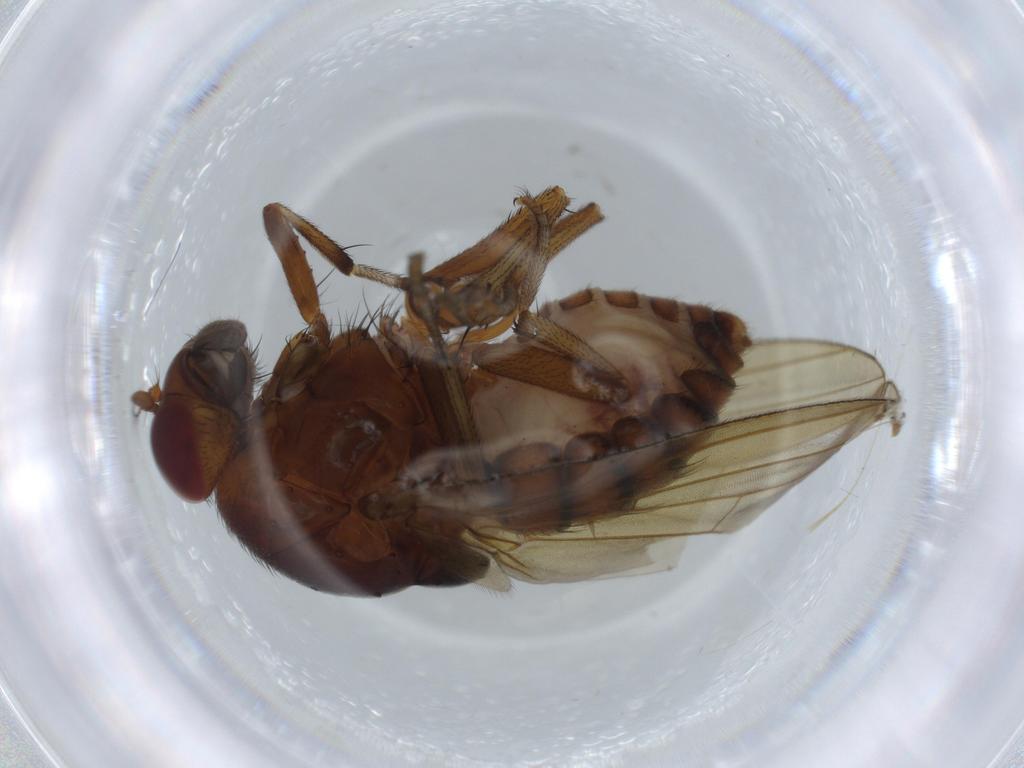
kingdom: Animalia
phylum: Arthropoda
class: Insecta
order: Diptera
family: Cecidomyiidae
